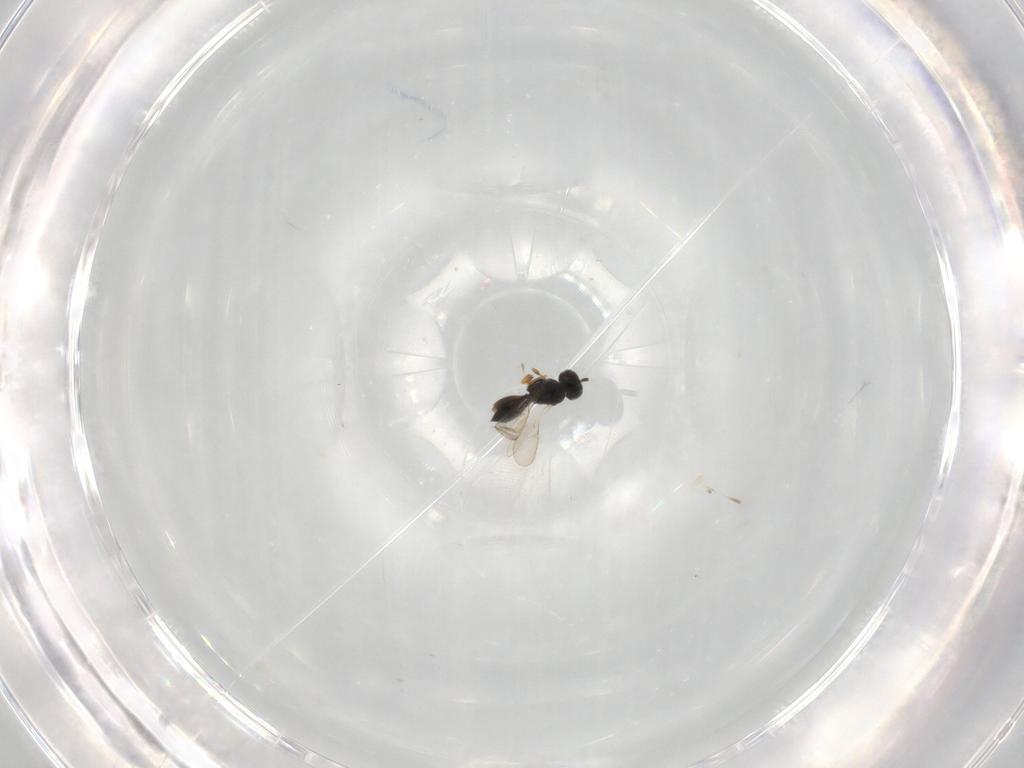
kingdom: Animalia
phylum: Arthropoda
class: Insecta
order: Hymenoptera
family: Scelionidae
